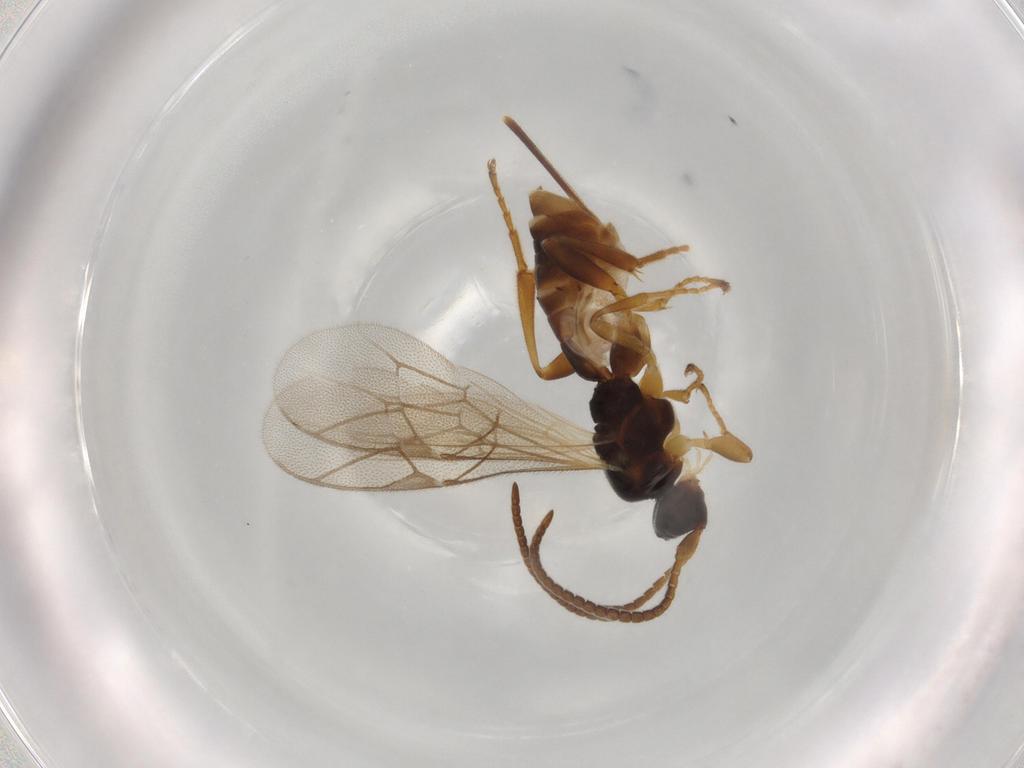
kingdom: Animalia
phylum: Arthropoda
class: Insecta
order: Hymenoptera
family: Ichneumonidae
